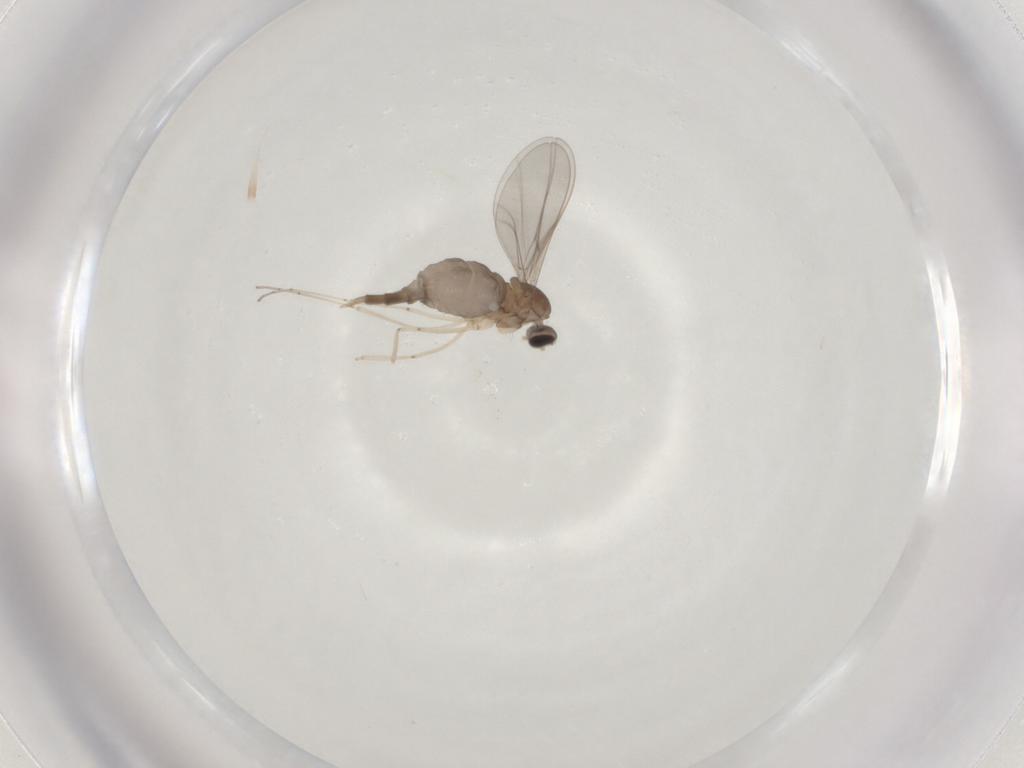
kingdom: Animalia
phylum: Arthropoda
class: Insecta
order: Diptera
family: Cecidomyiidae
